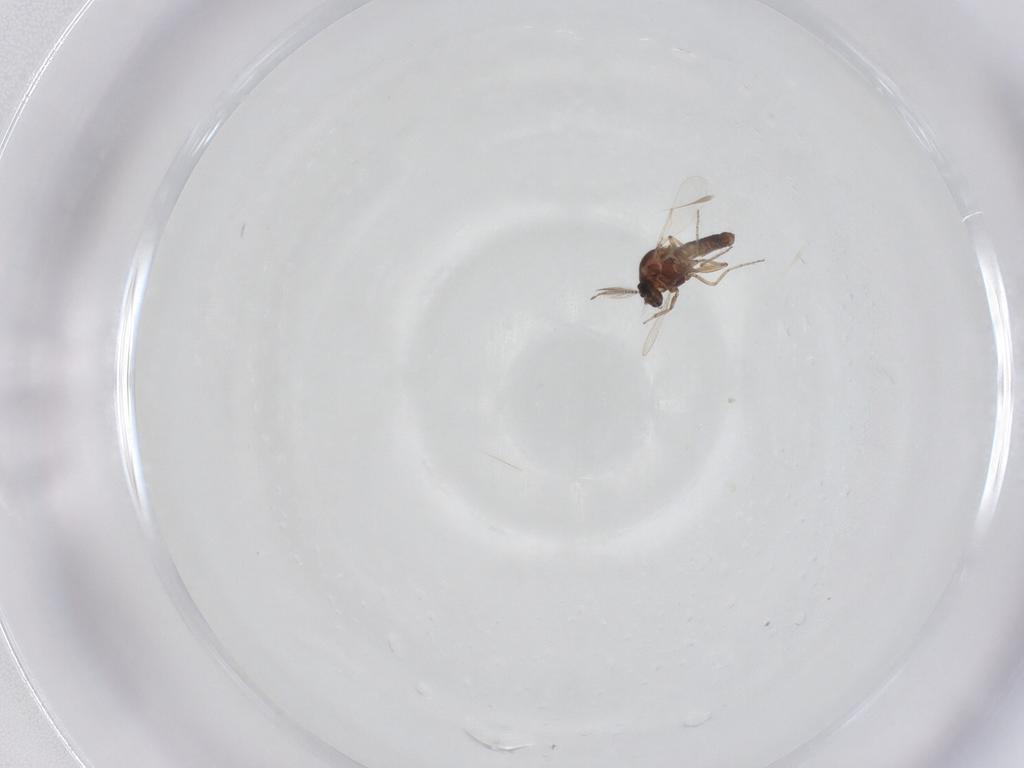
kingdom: Animalia
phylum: Arthropoda
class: Insecta
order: Diptera
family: Ceratopogonidae
